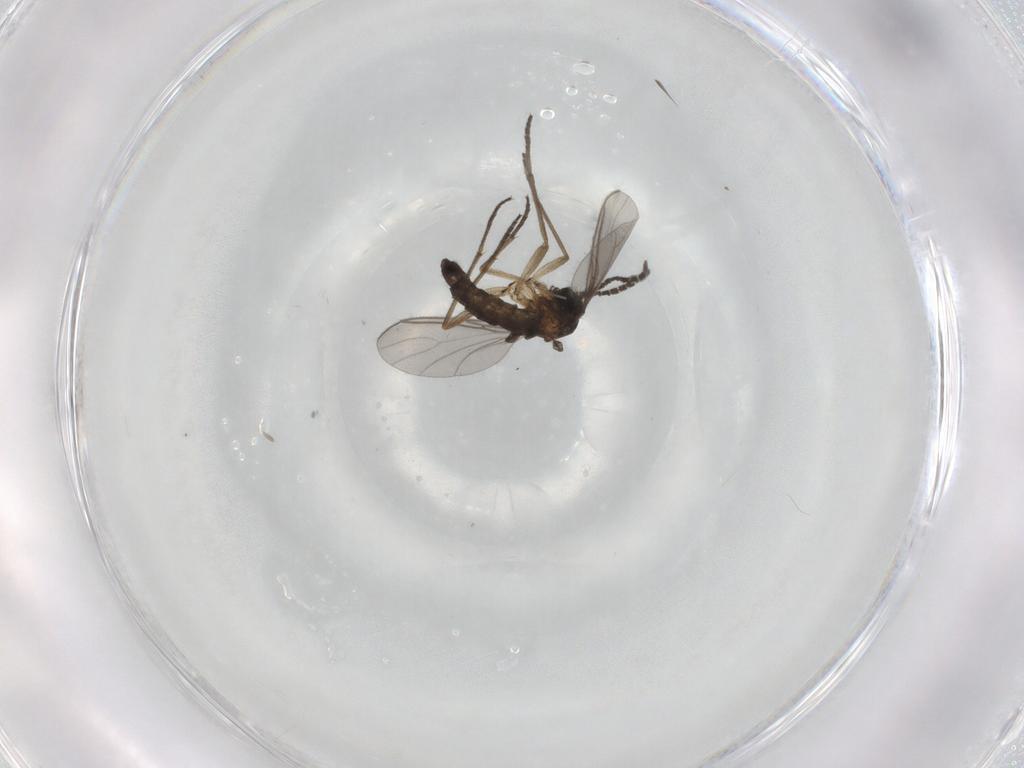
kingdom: Animalia
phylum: Arthropoda
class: Insecta
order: Diptera
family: Sciaridae
